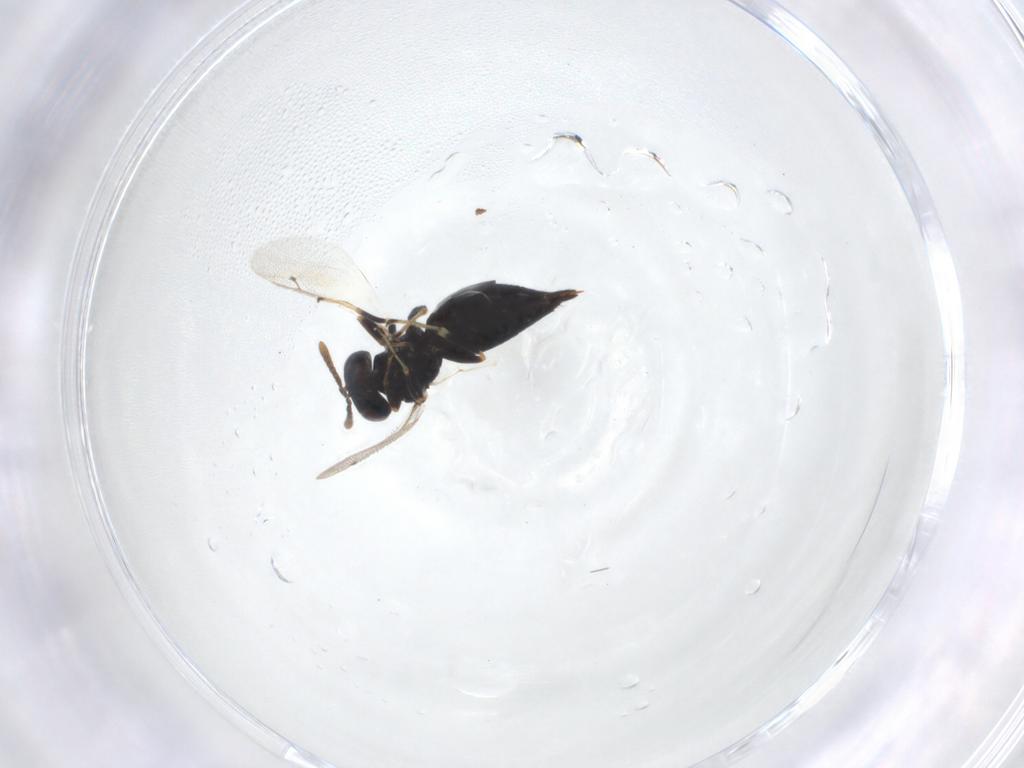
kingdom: Animalia
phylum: Arthropoda
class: Insecta
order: Hymenoptera
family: Pteromalidae
